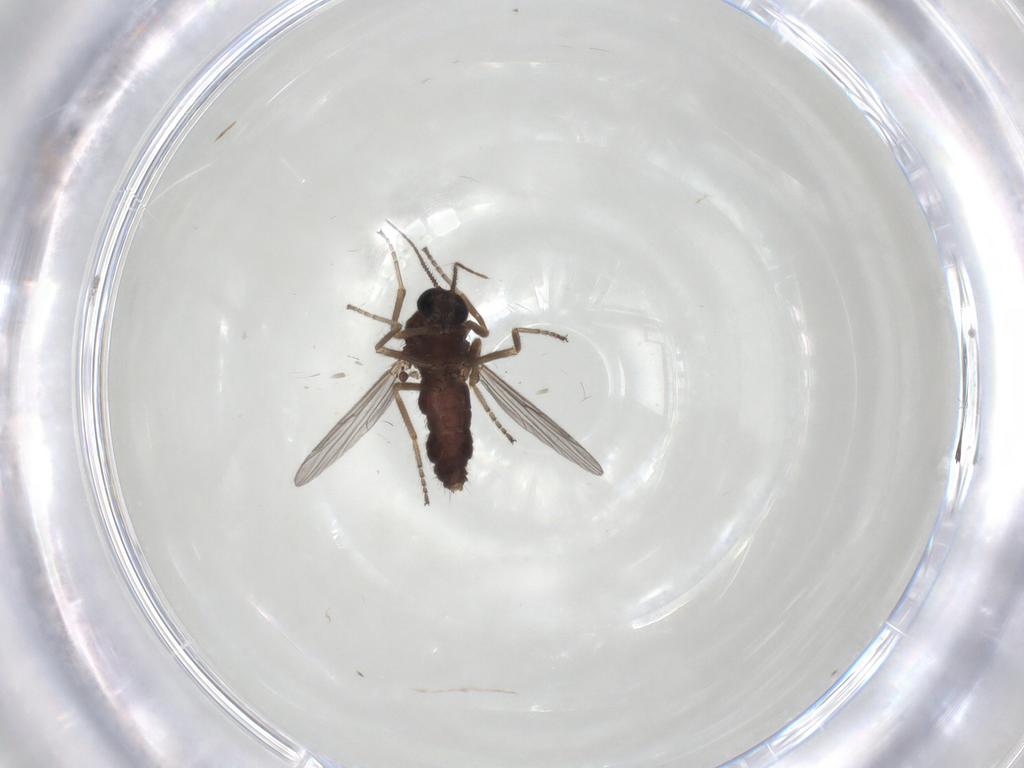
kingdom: Animalia
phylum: Arthropoda
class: Insecta
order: Diptera
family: Ceratopogonidae
